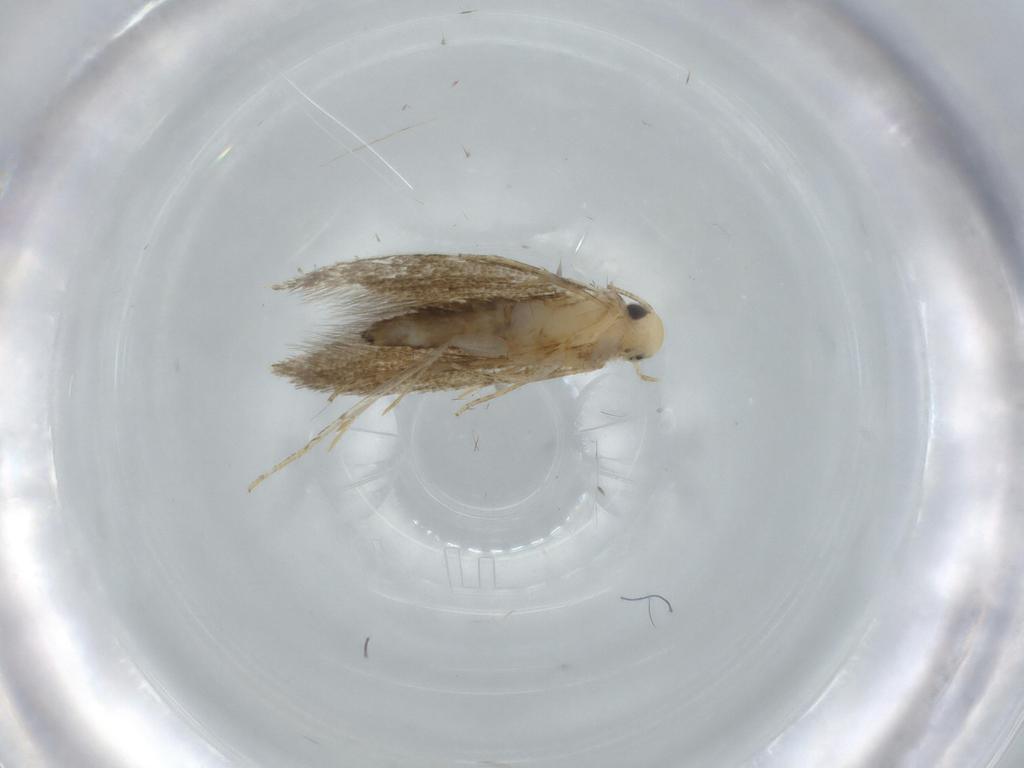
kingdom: Animalia
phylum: Arthropoda
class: Insecta
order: Lepidoptera
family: Tineidae
